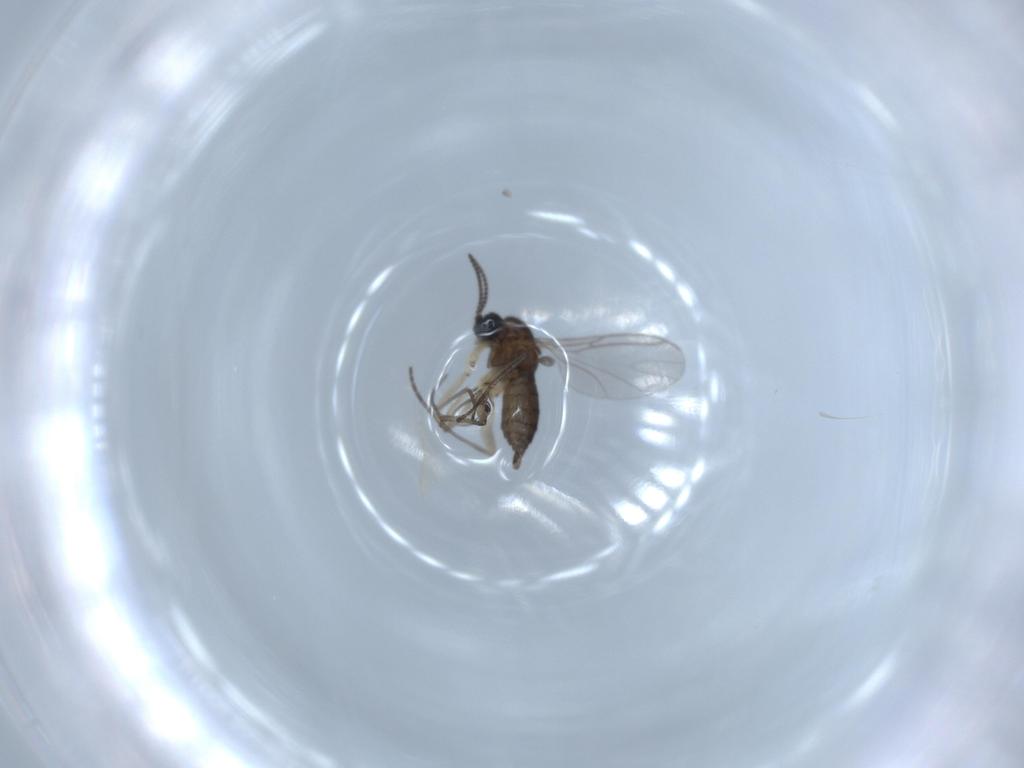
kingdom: Animalia
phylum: Arthropoda
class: Insecta
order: Diptera
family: Sciaridae
